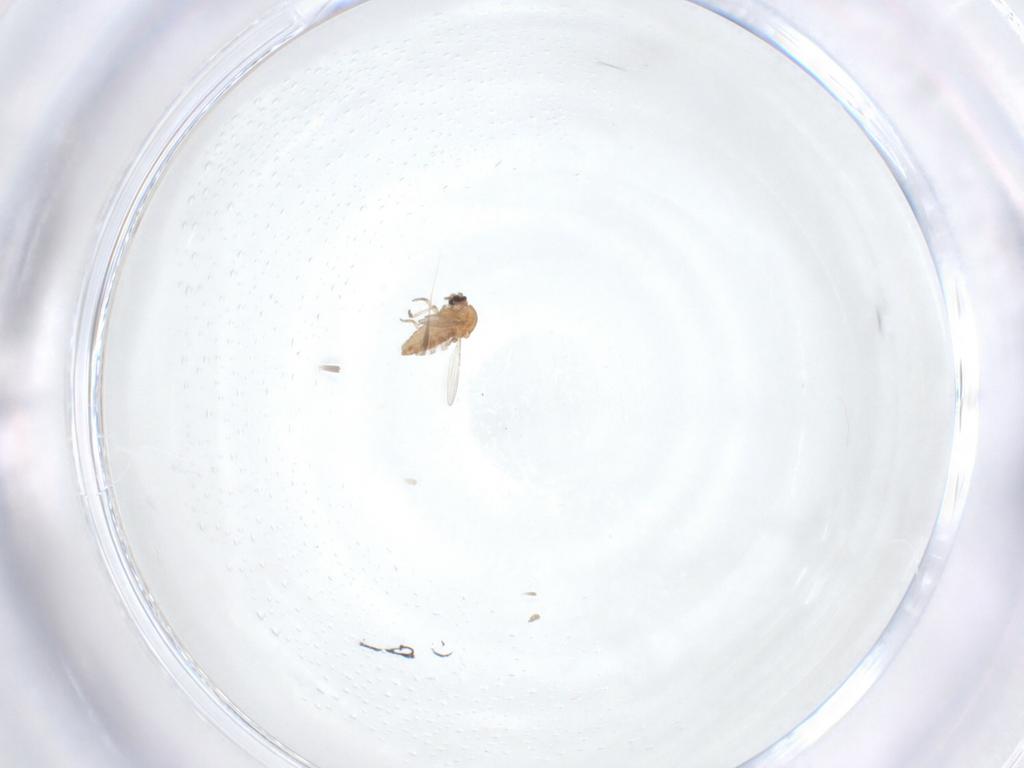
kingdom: Animalia
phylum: Arthropoda
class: Insecta
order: Diptera
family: Ceratopogonidae
